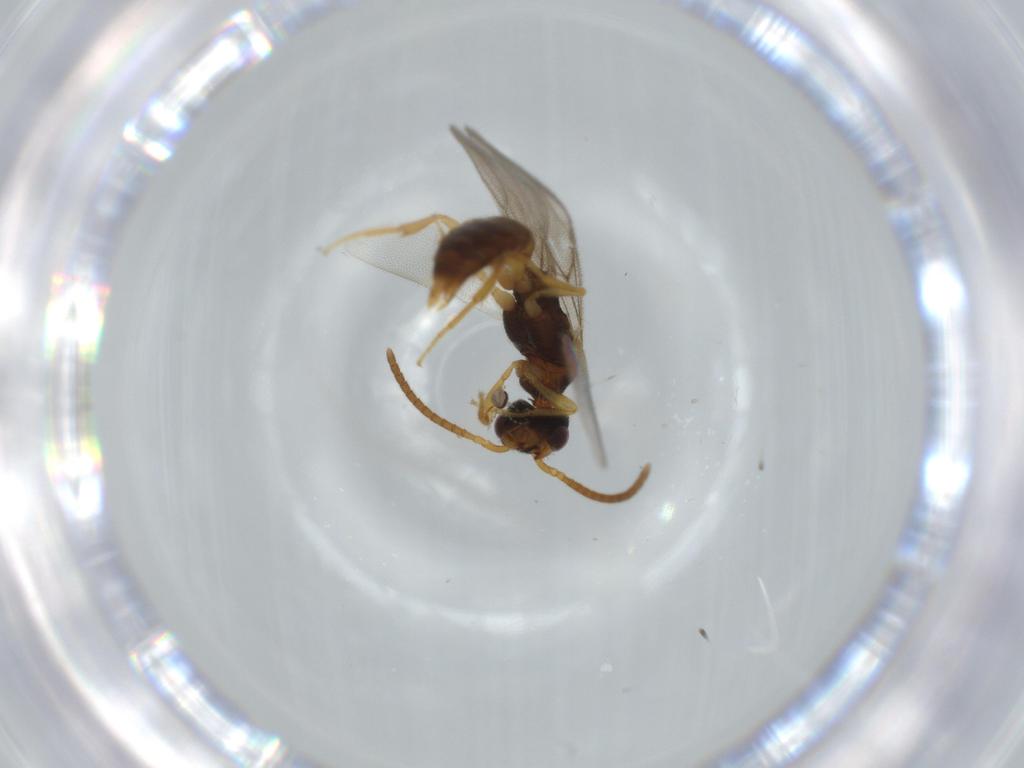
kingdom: Animalia
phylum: Arthropoda
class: Insecta
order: Hymenoptera
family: Bethylidae
